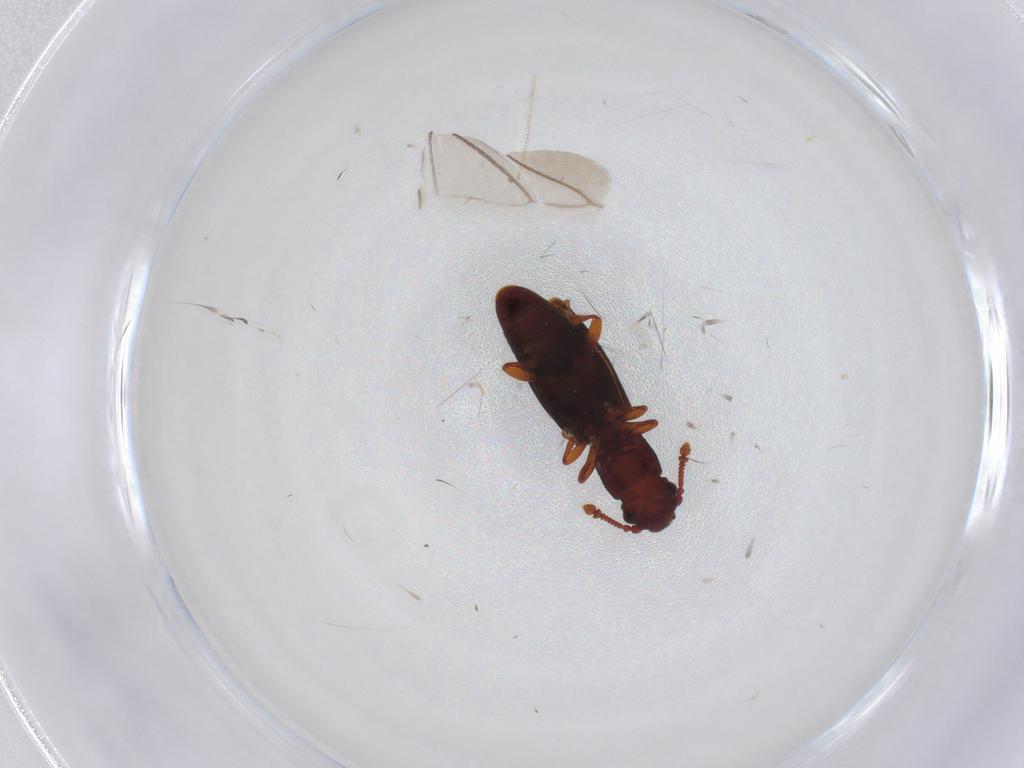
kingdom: Animalia
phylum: Arthropoda
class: Insecta
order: Coleoptera
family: Monotomidae
